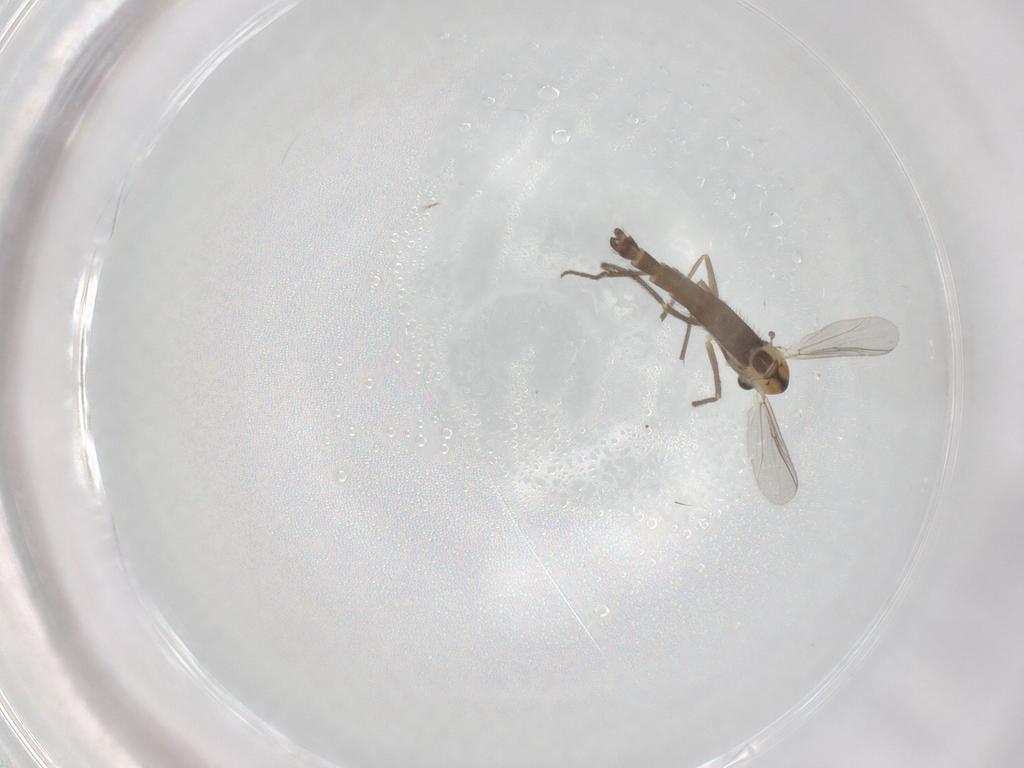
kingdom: Animalia
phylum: Arthropoda
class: Insecta
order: Diptera
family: Chironomidae
